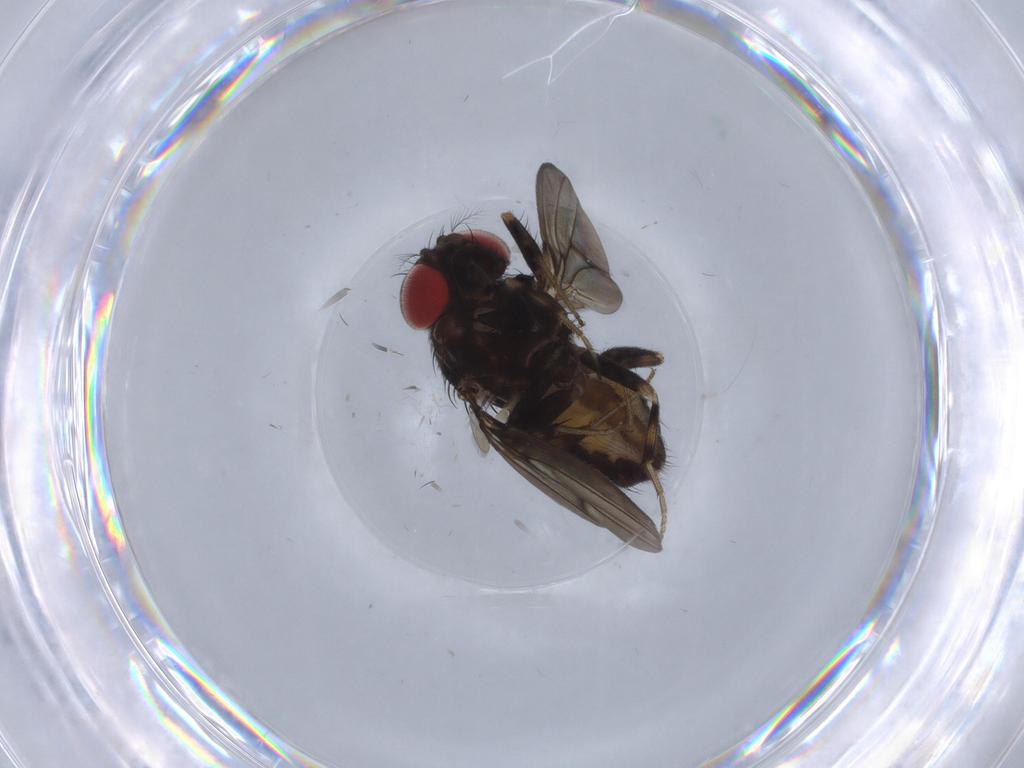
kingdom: Animalia
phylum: Arthropoda
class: Insecta
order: Diptera
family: Drosophilidae
